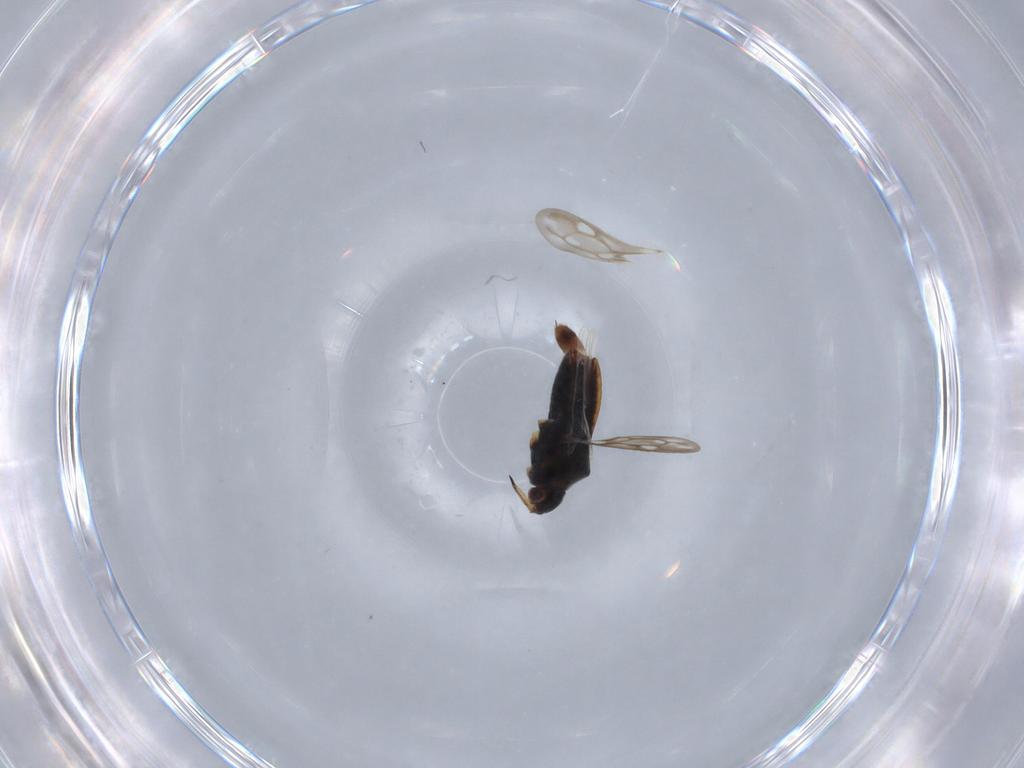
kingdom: Animalia
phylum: Arthropoda
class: Insecta
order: Hemiptera
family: Veliidae
